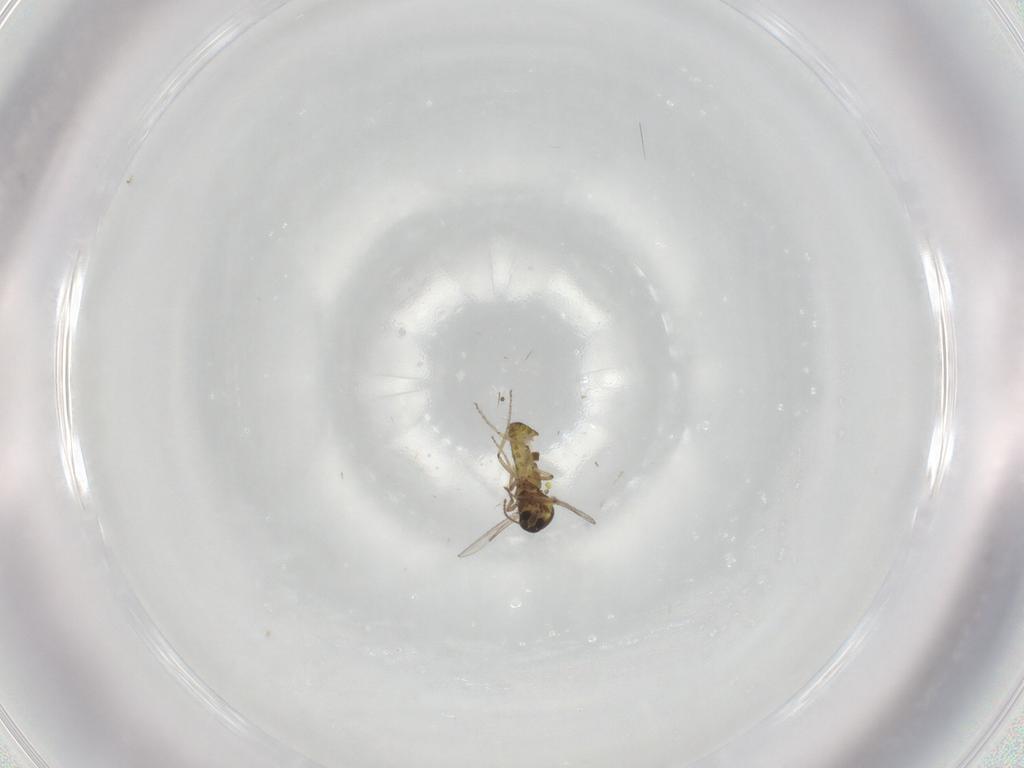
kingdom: Animalia
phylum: Arthropoda
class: Insecta
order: Diptera
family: Ceratopogonidae
